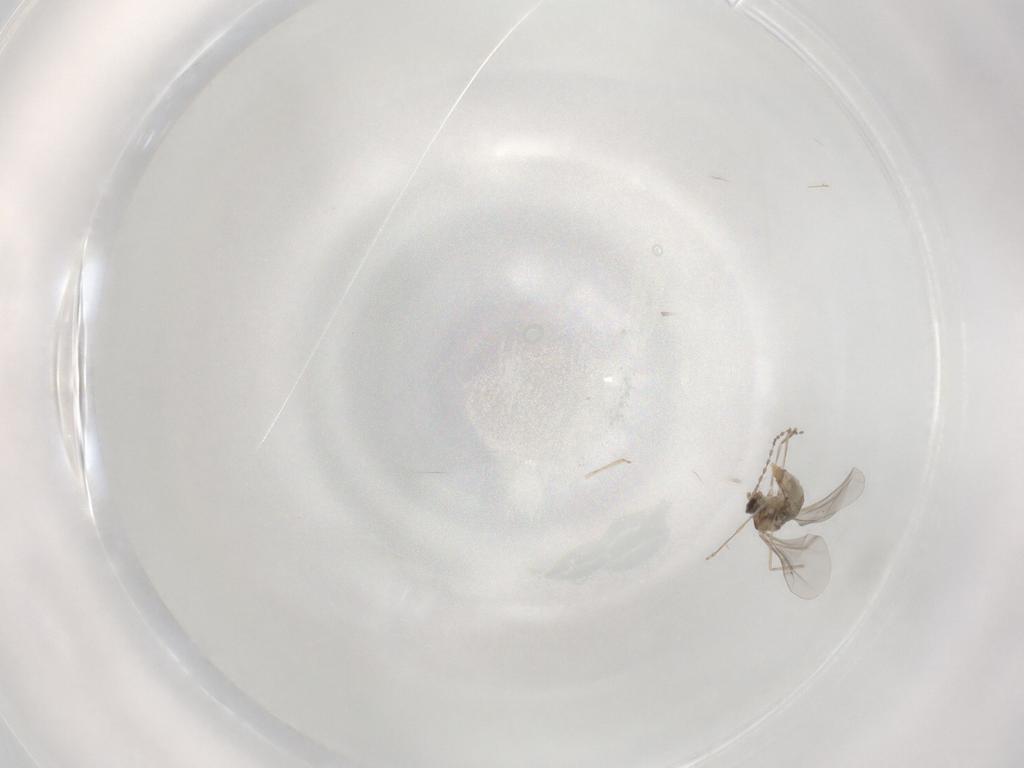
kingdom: Animalia
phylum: Arthropoda
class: Insecta
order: Diptera
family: Cecidomyiidae
